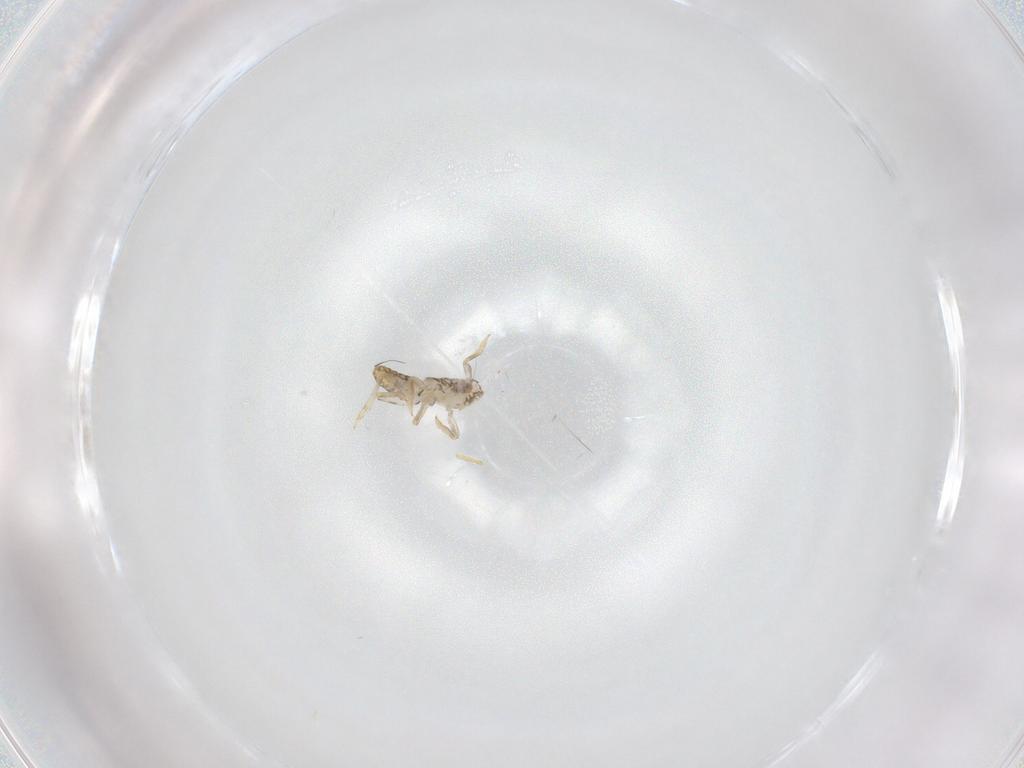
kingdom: Animalia
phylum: Arthropoda
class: Insecta
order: Hemiptera
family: Delphacidae
